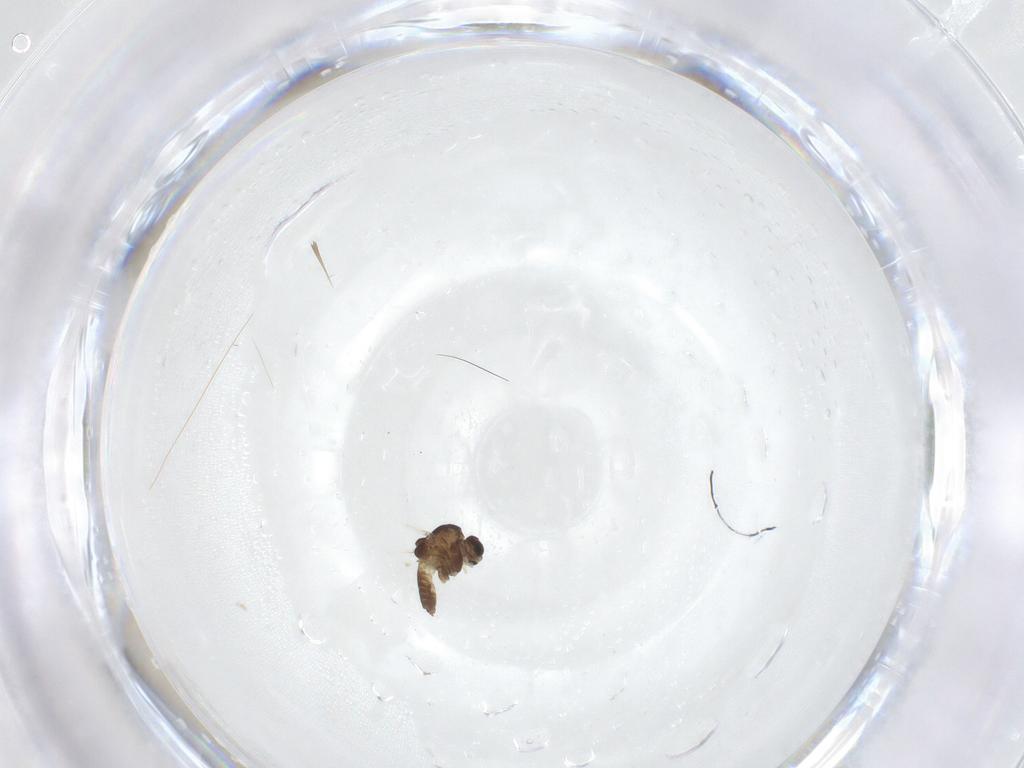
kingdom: Animalia
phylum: Arthropoda
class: Insecta
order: Diptera
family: Chironomidae
